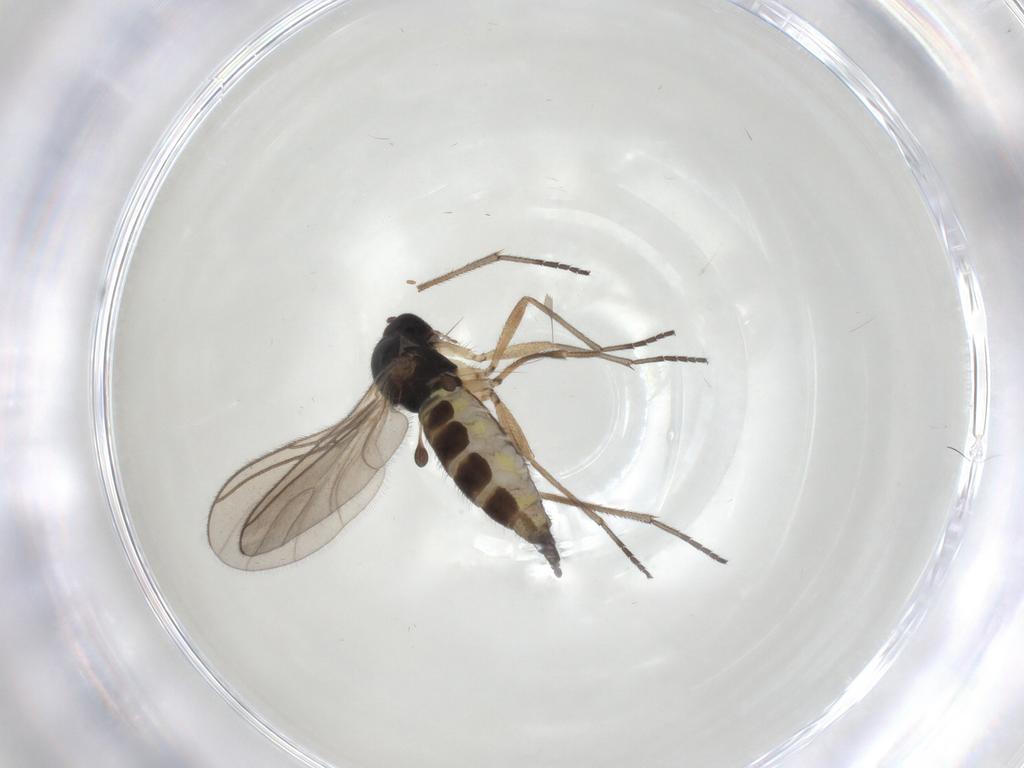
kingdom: Animalia
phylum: Arthropoda
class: Insecta
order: Diptera
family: Sciaridae
